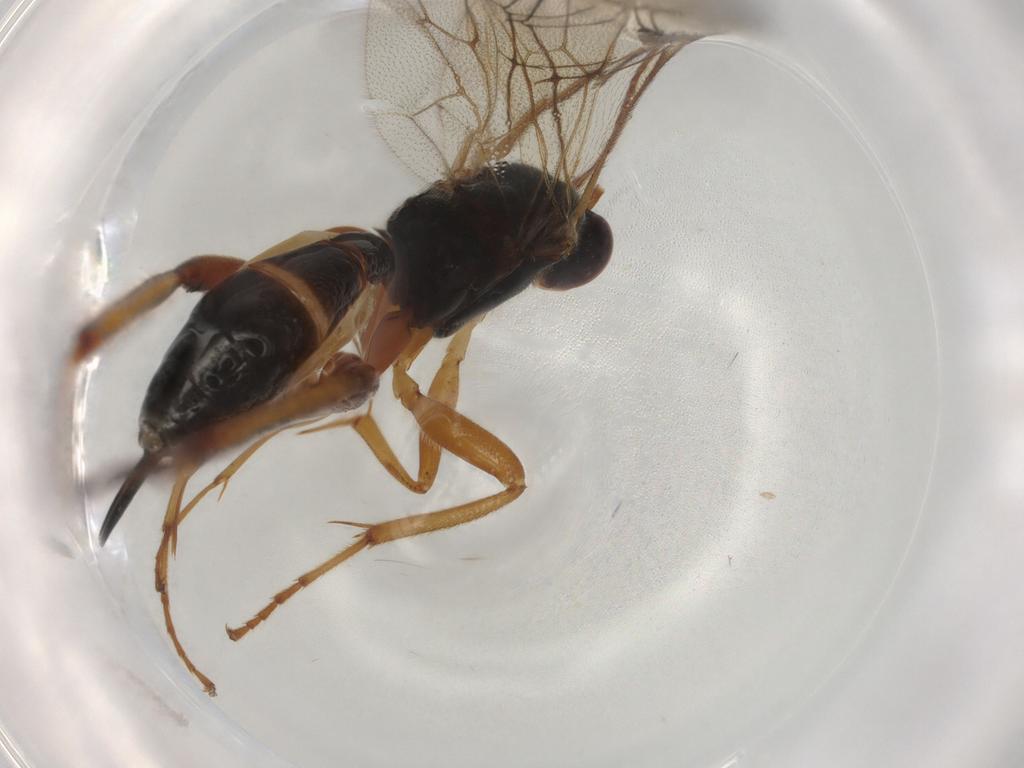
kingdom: Animalia
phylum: Arthropoda
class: Insecta
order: Hymenoptera
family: Ichneumonidae
